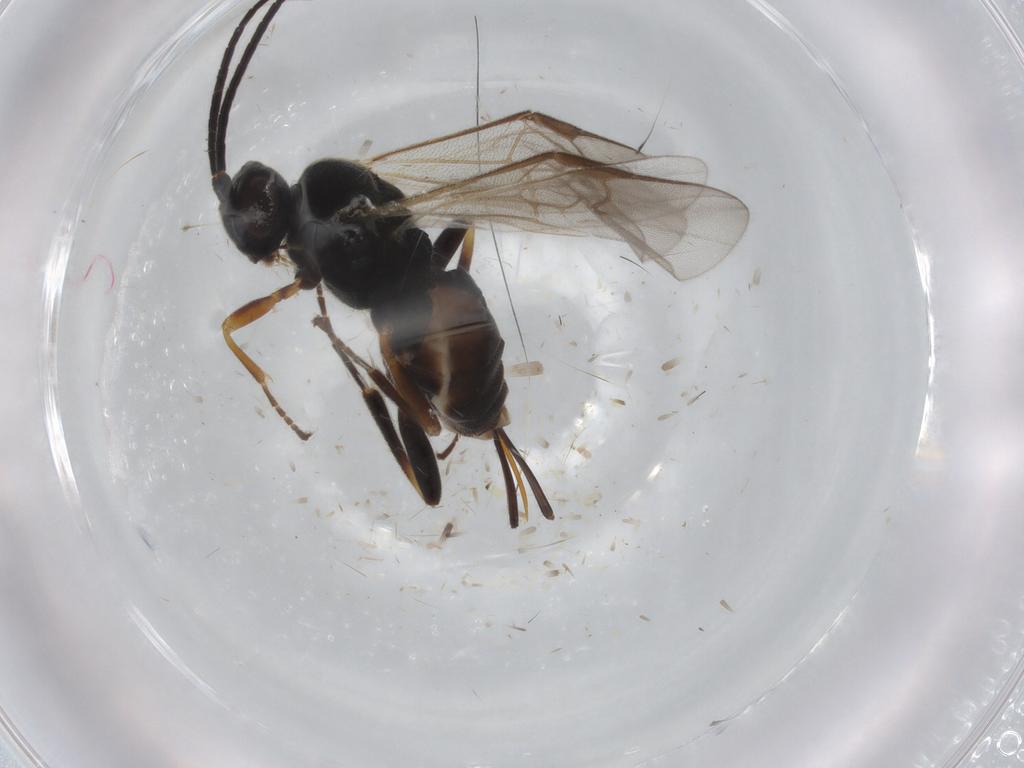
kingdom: Animalia
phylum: Arthropoda
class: Insecta
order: Hymenoptera
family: Braconidae
